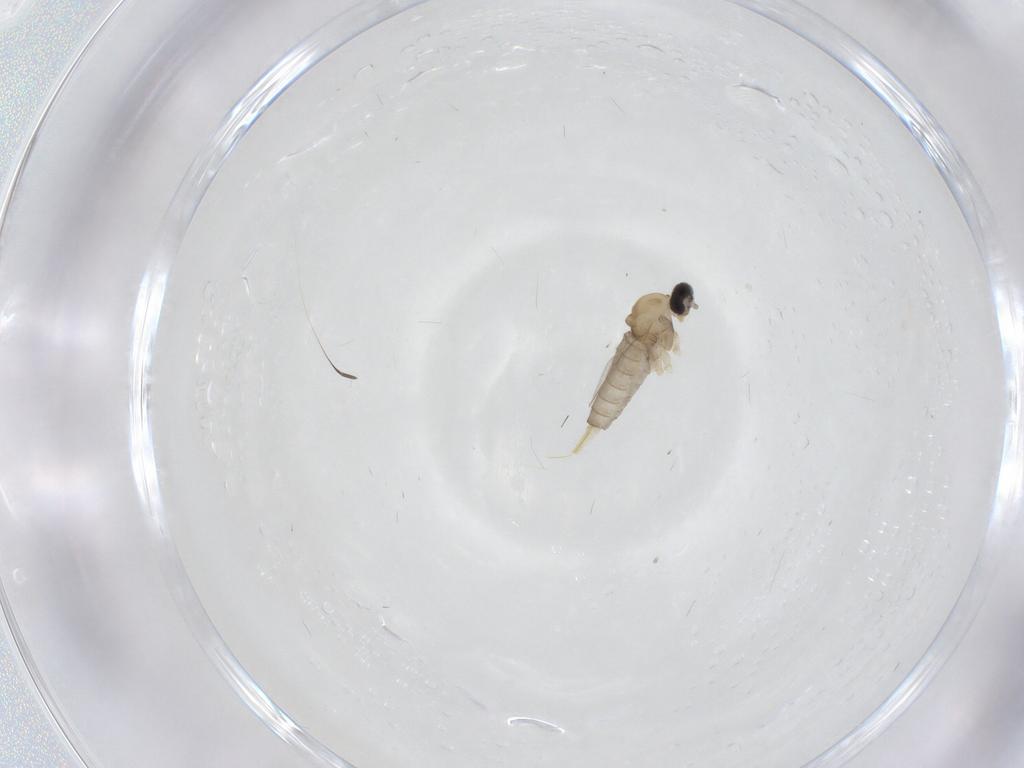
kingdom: Animalia
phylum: Arthropoda
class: Insecta
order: Diptera
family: Cecidomyiidae
